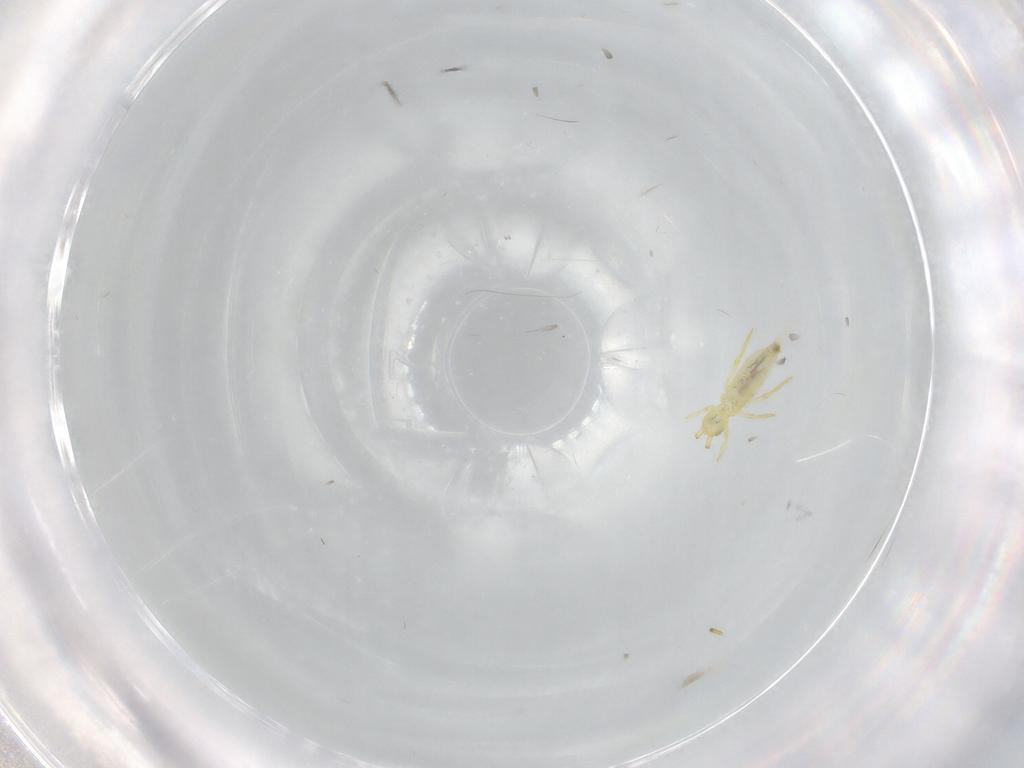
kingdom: Animalia
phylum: Arthropoda
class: Collembola
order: Entomobryomorpha
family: Paronellidae
